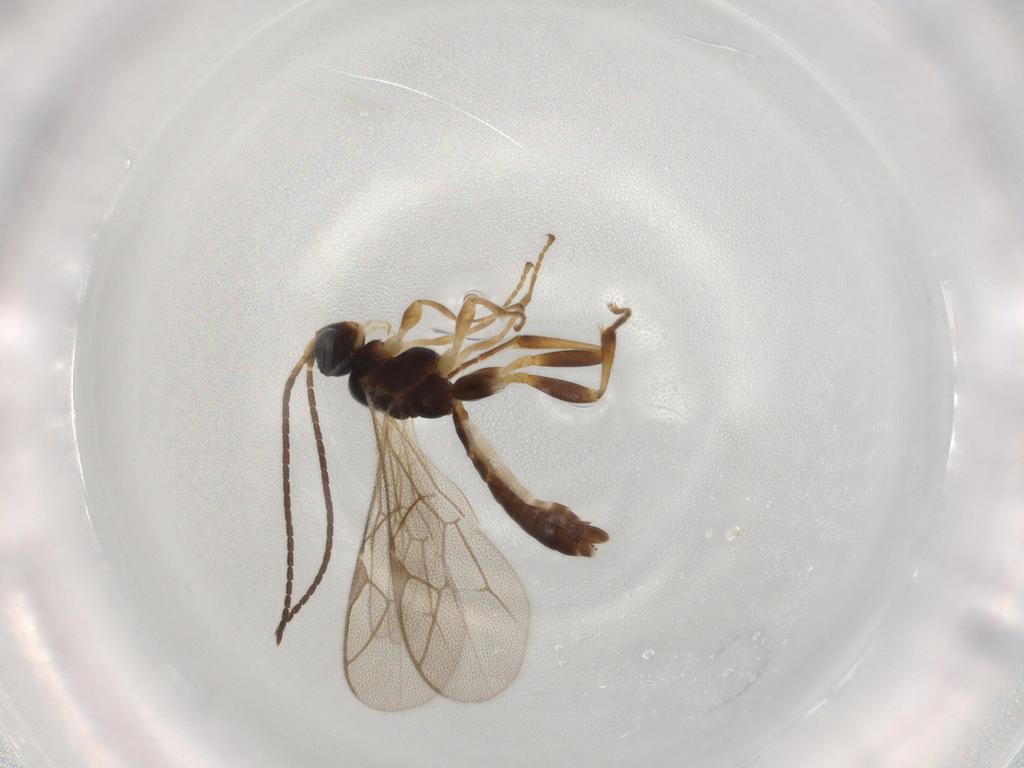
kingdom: Animalia
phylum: Arthropoda
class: Insecta
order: Hymenoptera
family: Ichneumonidae
